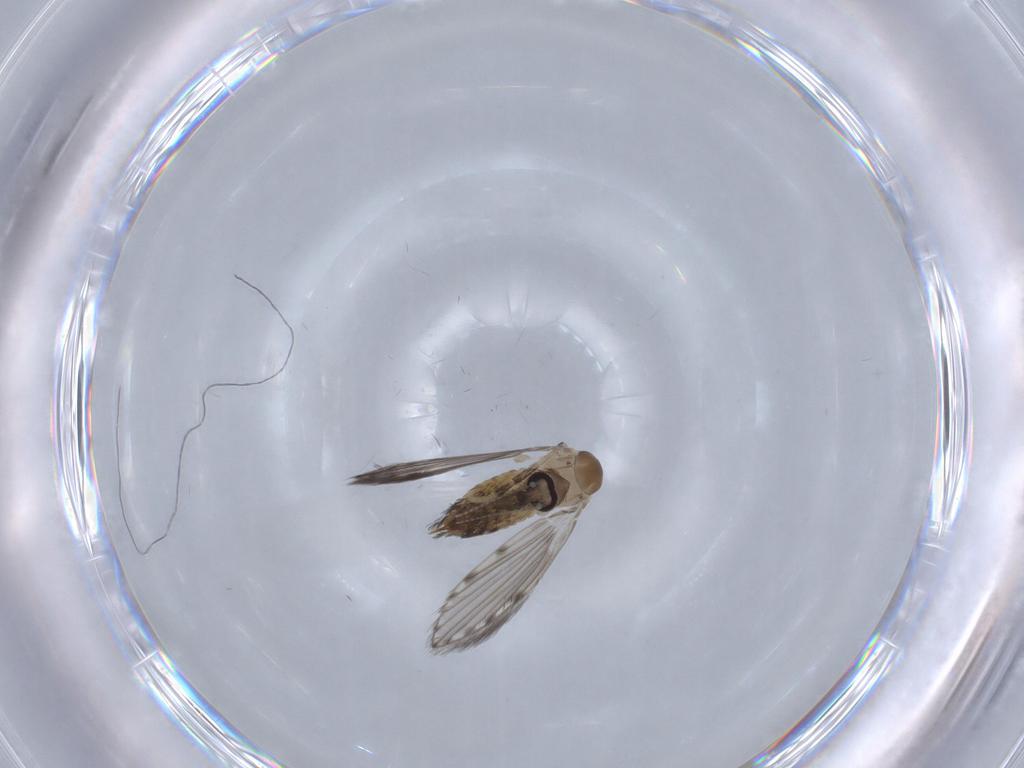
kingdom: Animalia
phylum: Arthropoda
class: Insecta
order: Diptera
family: Psychodidae
